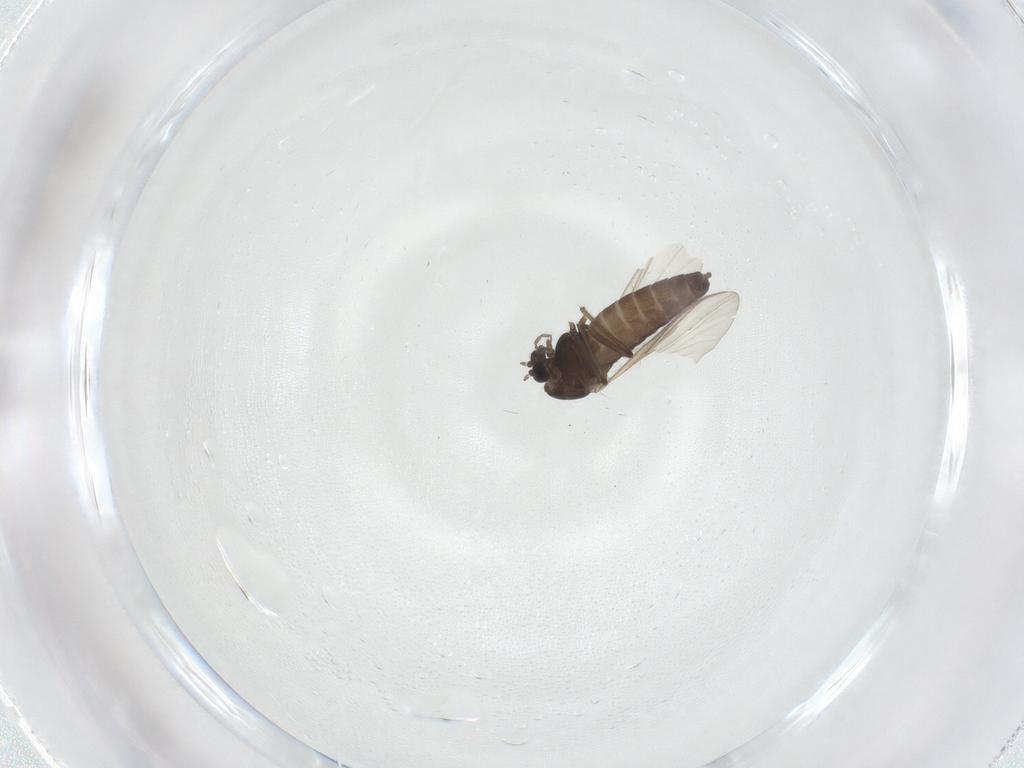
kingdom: Animalia
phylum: Arthropoda
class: Insecta
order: Diptera
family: Chironomidae
